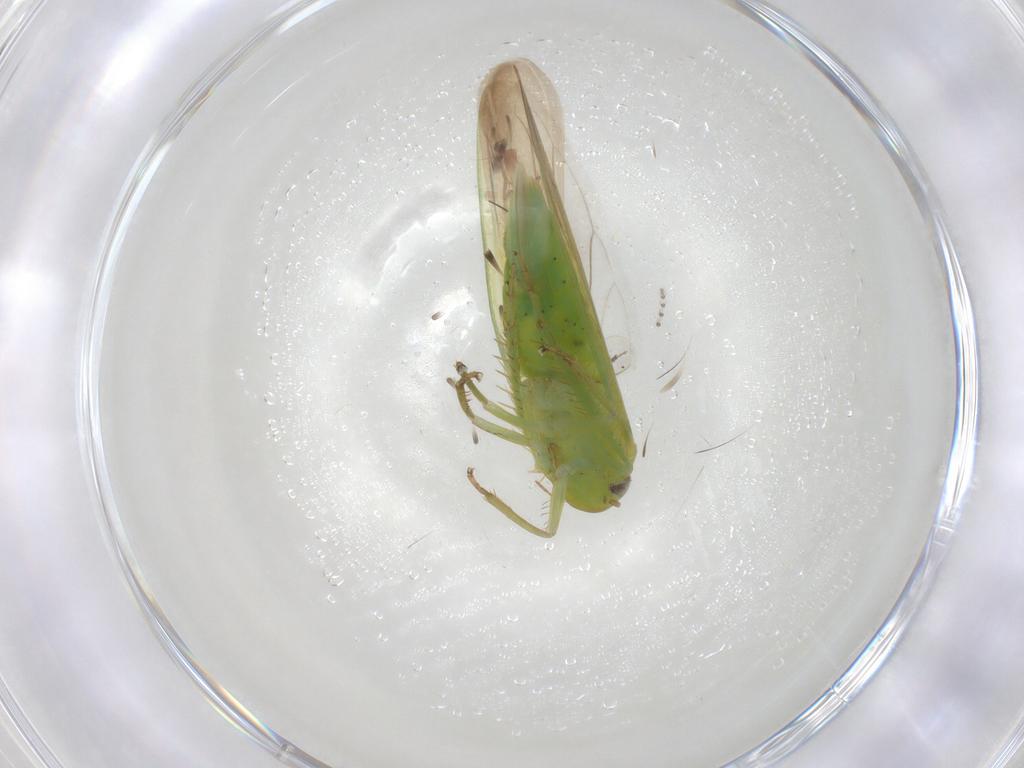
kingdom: Animalia
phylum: Arthropoda
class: Insecta
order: Hemiptera
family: Cicadellidae
